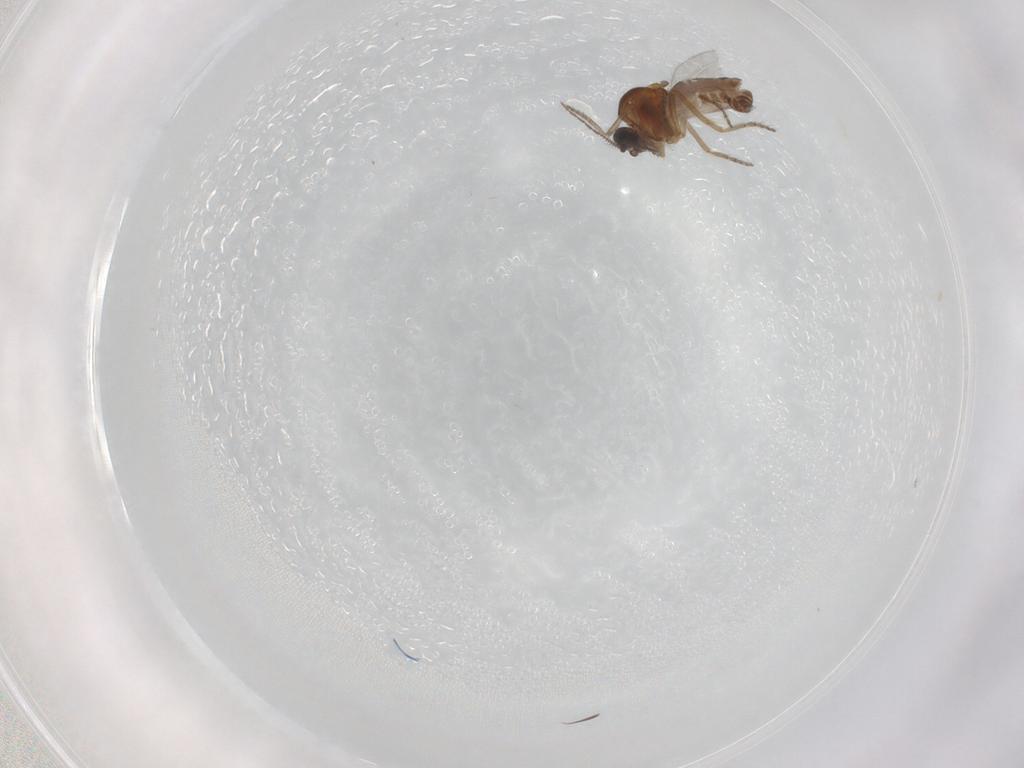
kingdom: Animalia
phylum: Arthropoda
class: Insecta
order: Diptera
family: Ceratopogonidae
